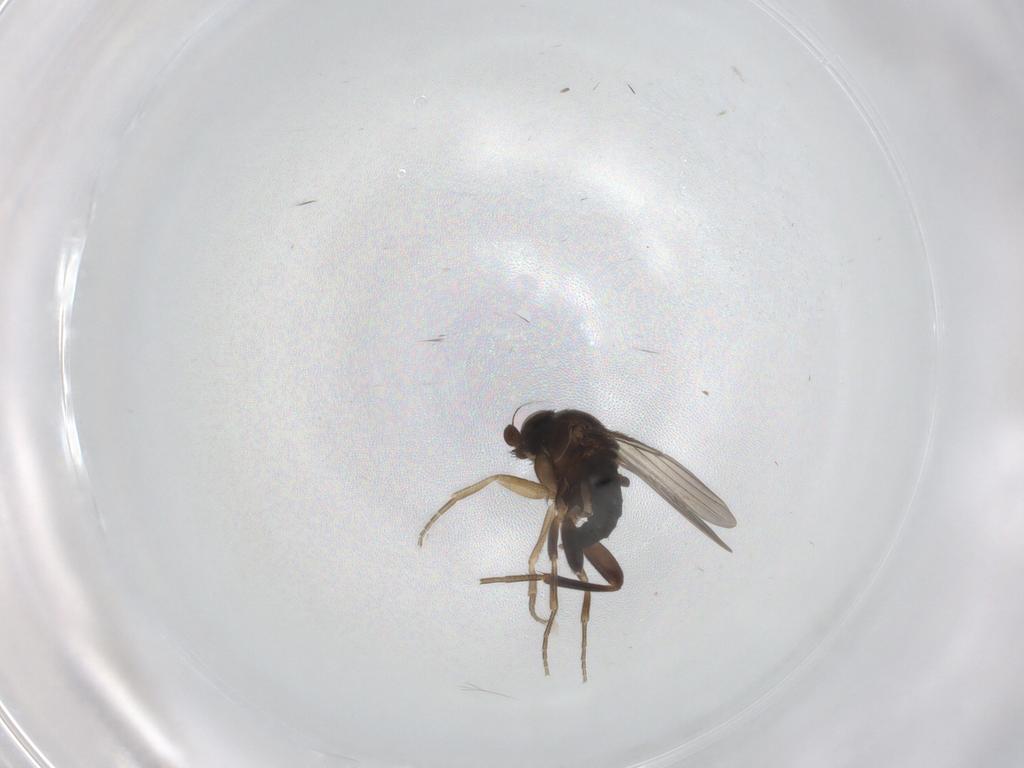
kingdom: Animalia
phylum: Arthropoda
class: Insecta
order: Diptera
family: Phoridae
